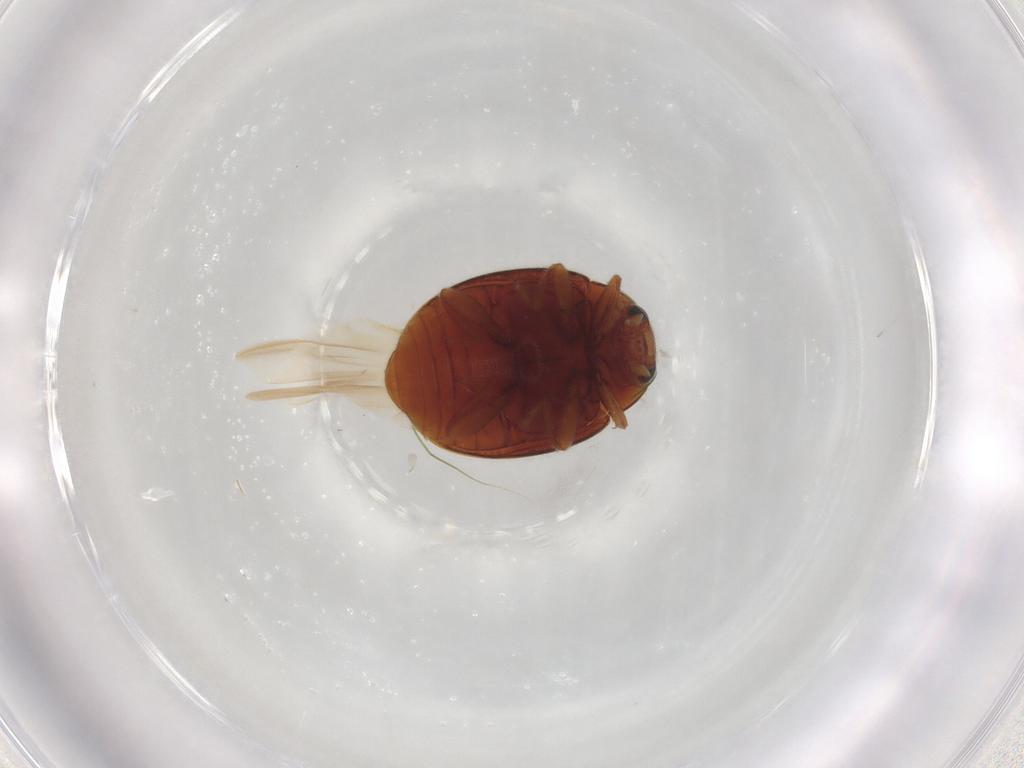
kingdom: Animalia
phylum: Arthropoda
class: Insecta
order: Coleoptera
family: Coccinellidae
